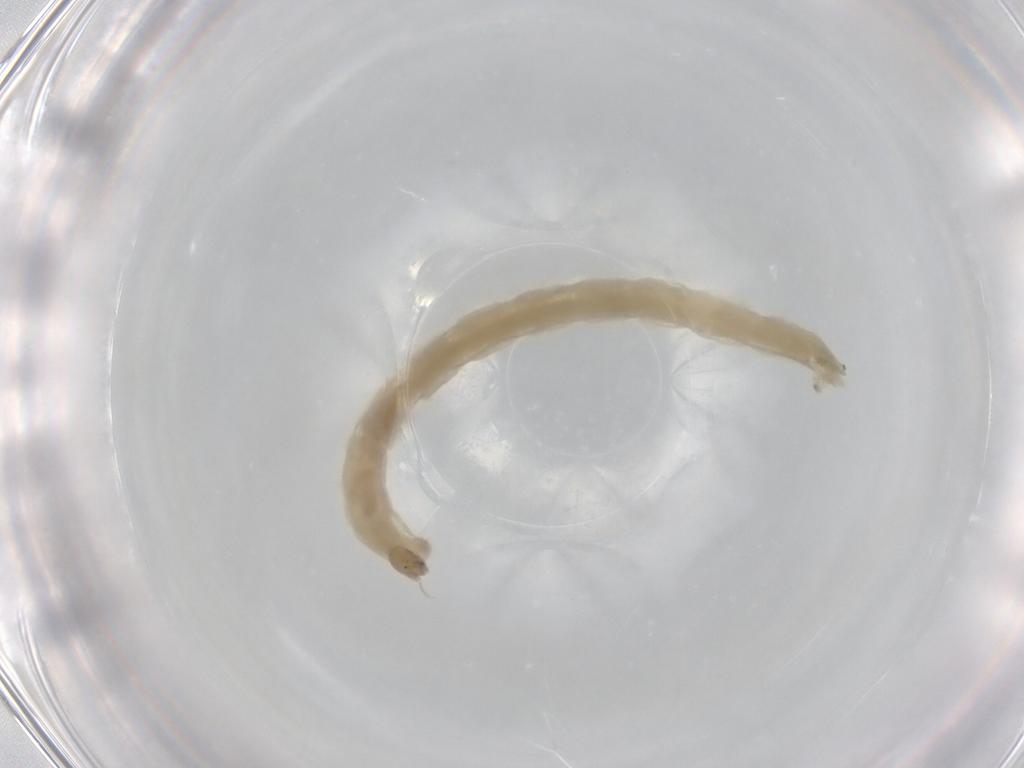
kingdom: Animalia
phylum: Arthropoda
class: Insecta
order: Diptera
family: Chironomidae
